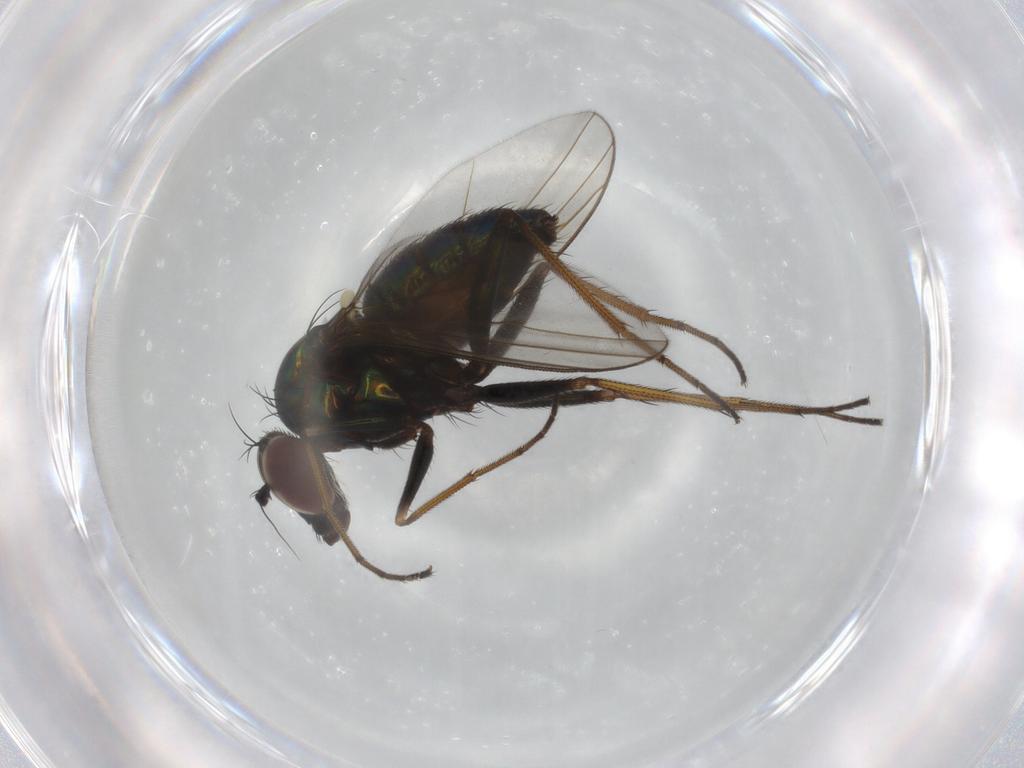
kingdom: Animalia
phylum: Arthropoda
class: Insecta
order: Diptera
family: Dolichopodidae
